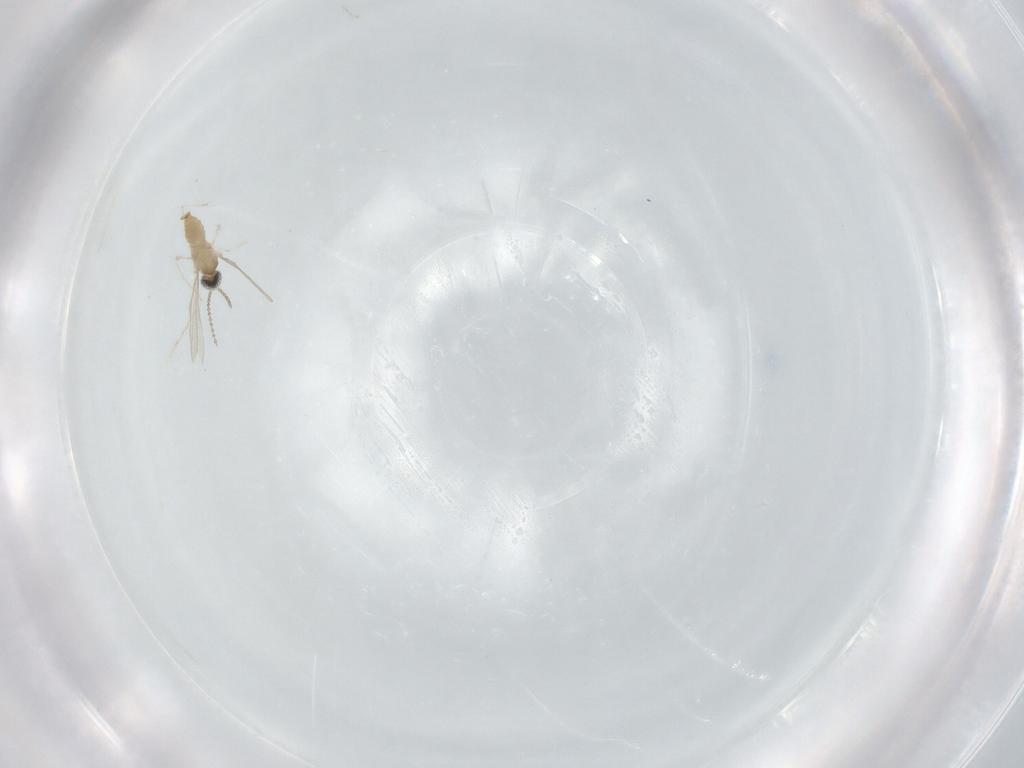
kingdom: Animalia
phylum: Arthropoda
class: Insecta
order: Diptera
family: Cecidomyiidae
